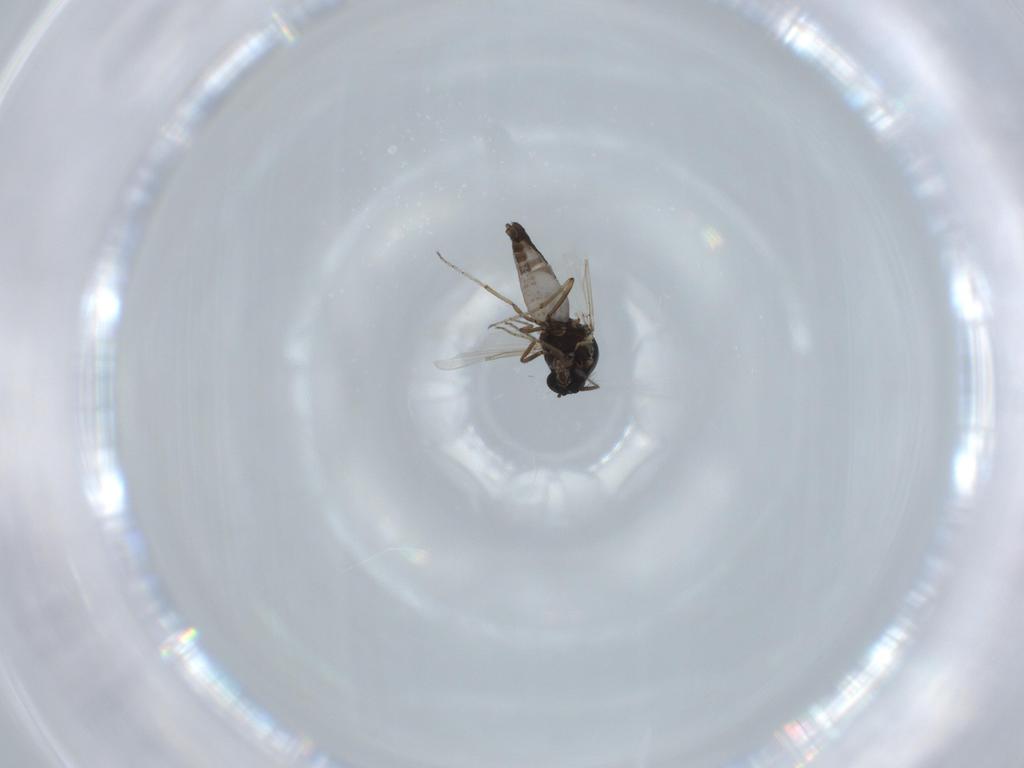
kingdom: Animalia
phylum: Arthropoda
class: Insecta
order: Diptera
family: Ceratopogonidae
